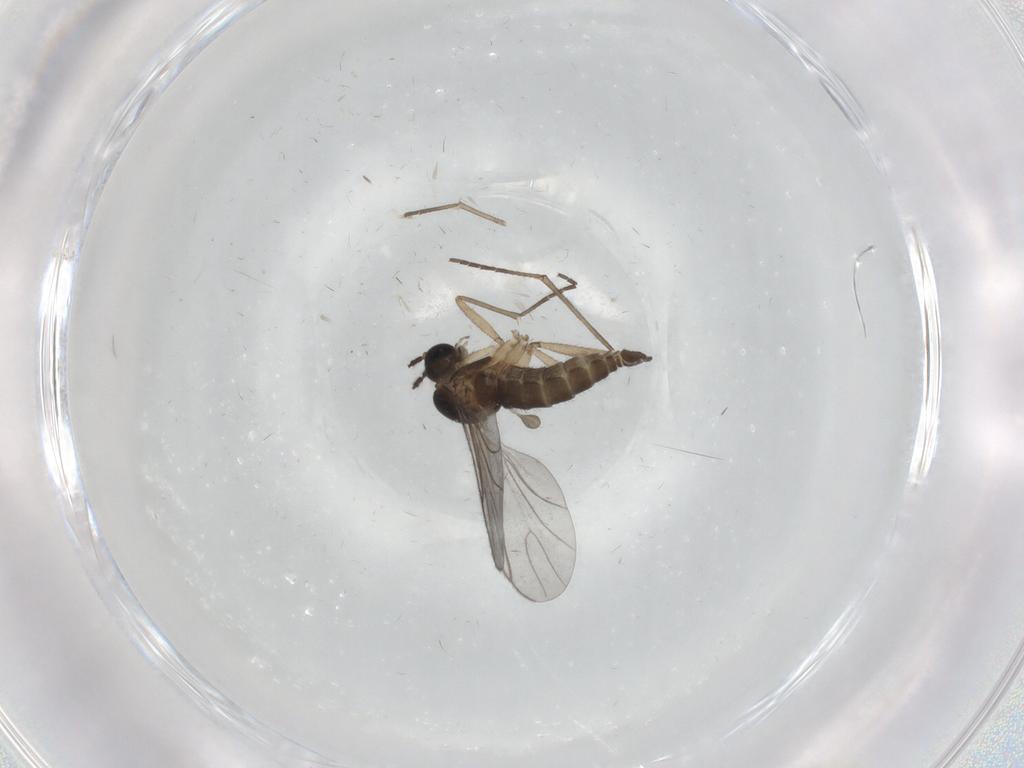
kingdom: Animalia
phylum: Arthropoda
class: Insecta
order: Diptera
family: Sphaeroceridae
